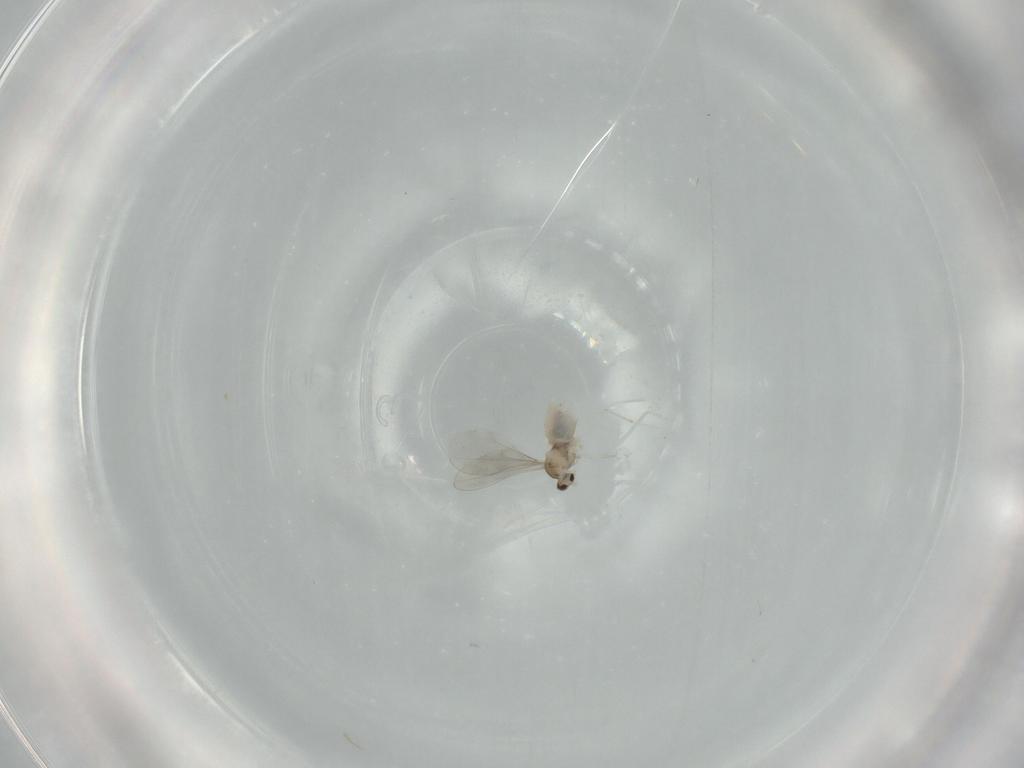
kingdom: Animalia
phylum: Arthropoda
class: Insecta
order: Diptera
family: Cecidomyiidae
